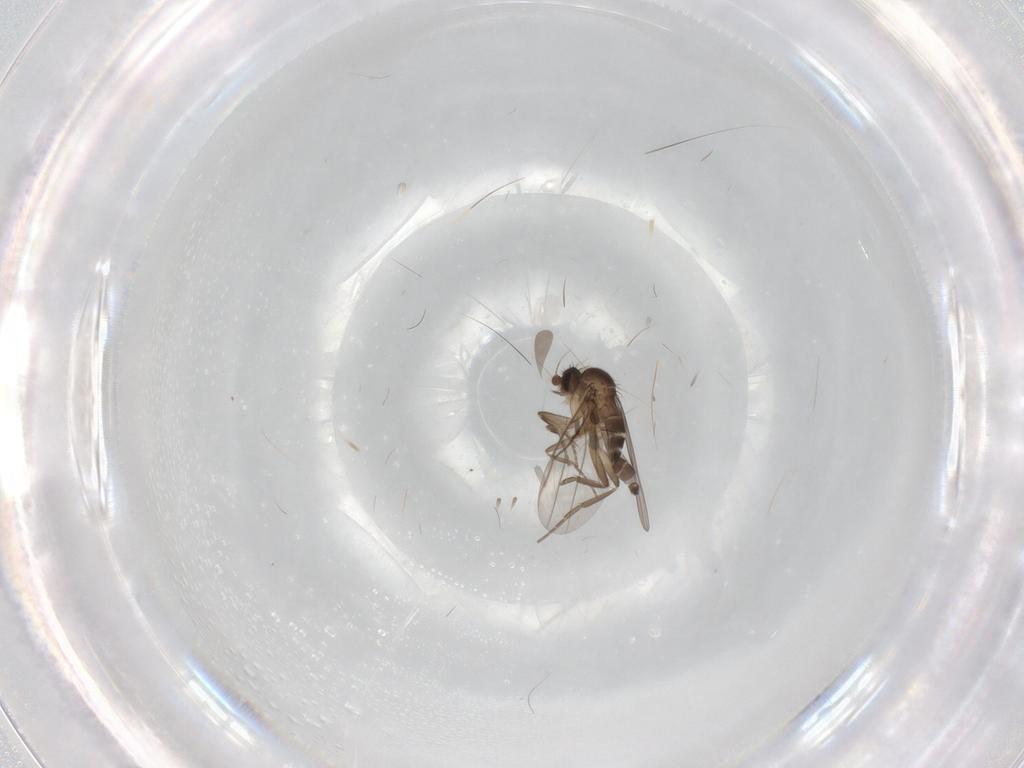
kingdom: Animalia
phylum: Arthropoda
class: Insecta
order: Diptera
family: Phoridae
